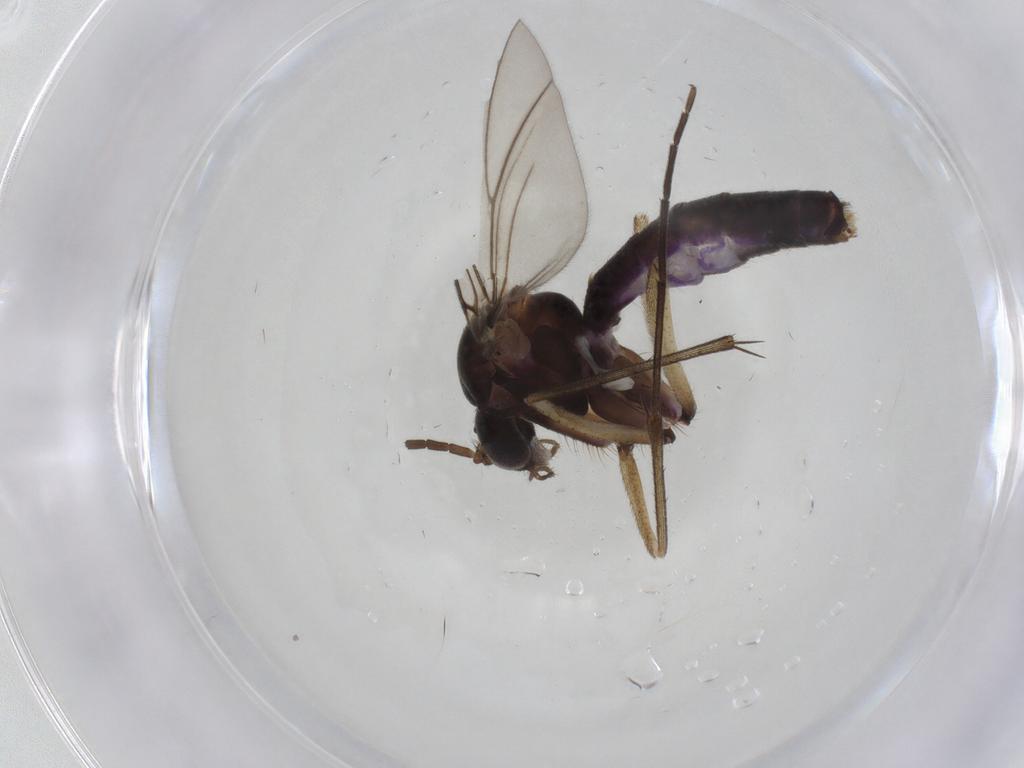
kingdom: Animalia
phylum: Arthropoda
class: Insecta
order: Diptera
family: Mycetophilidae
